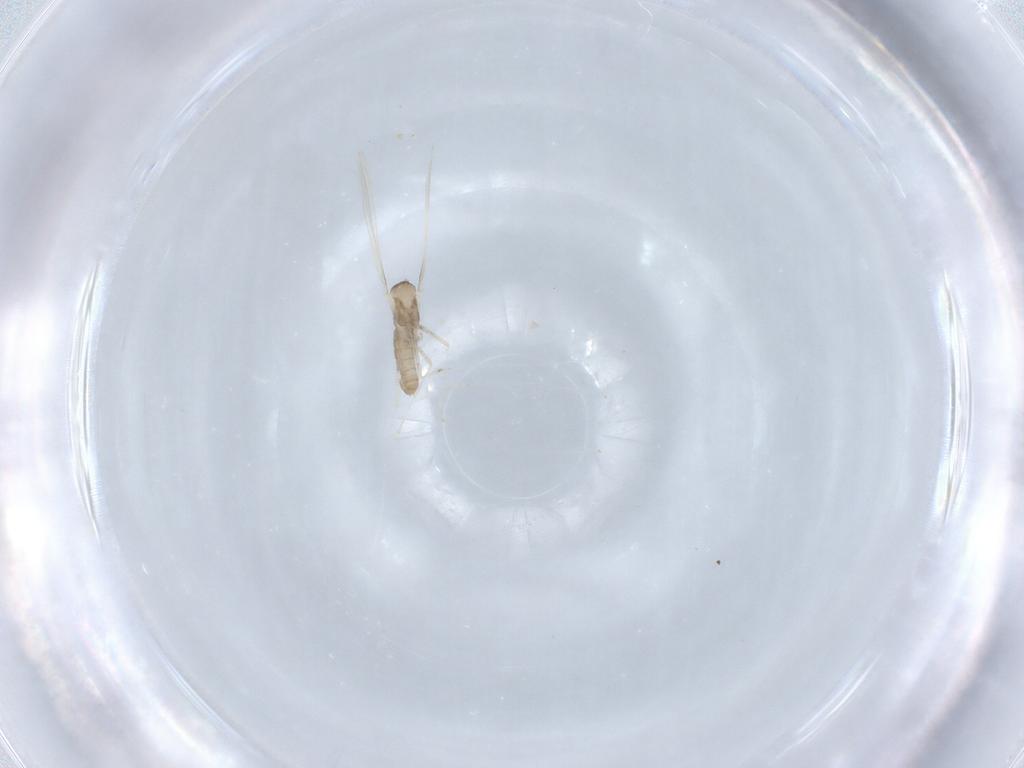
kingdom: Animalia
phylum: Arthropoda
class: Insecta
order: Diptera
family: Cecidomyiidae
